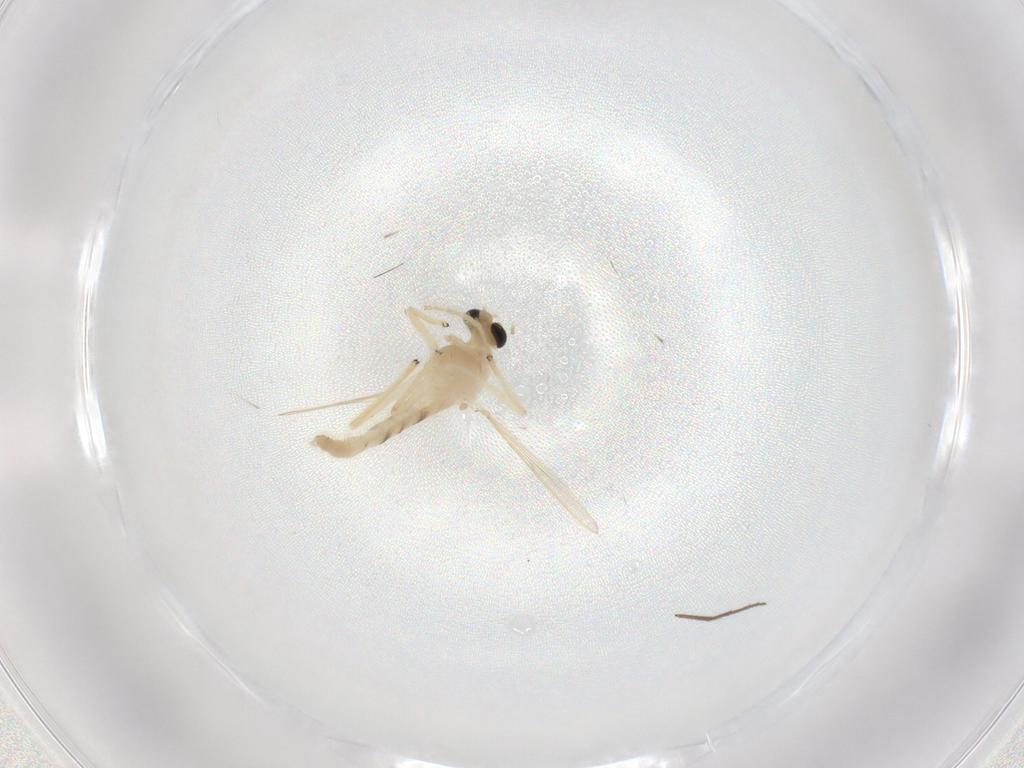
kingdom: Animalia
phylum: Arthropoda
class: Insecta
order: Diptera
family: Chironomidae
